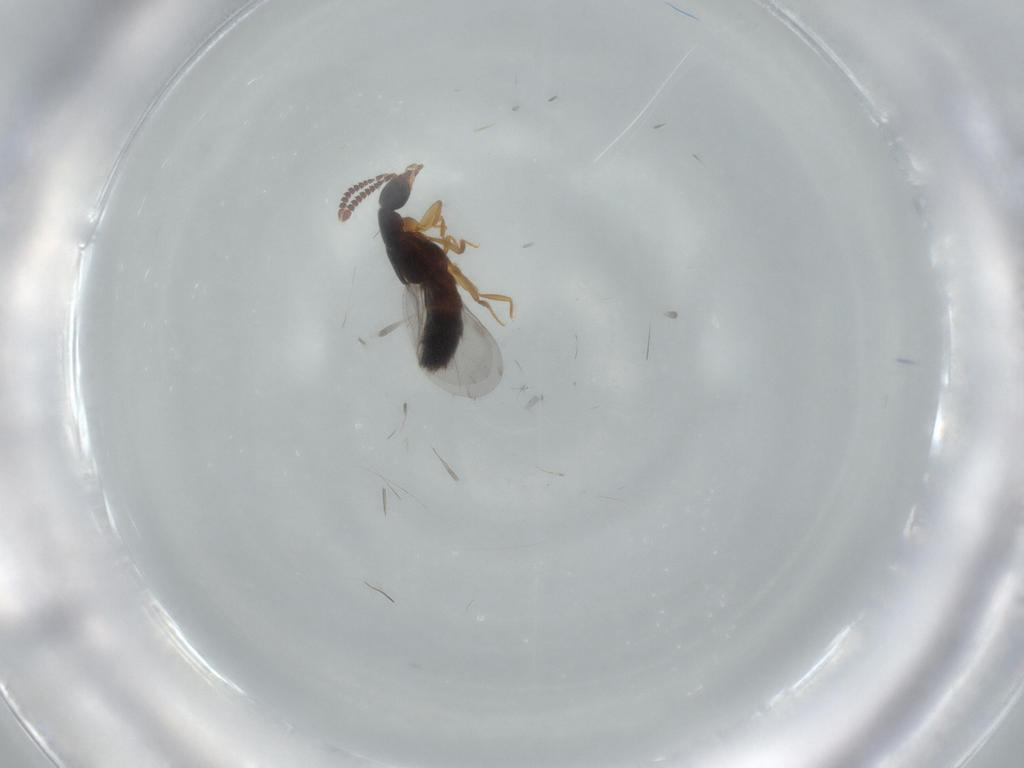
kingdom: Animalia
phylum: Arthropoda
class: Insecta
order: Coleoptera
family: Staphylinidae
